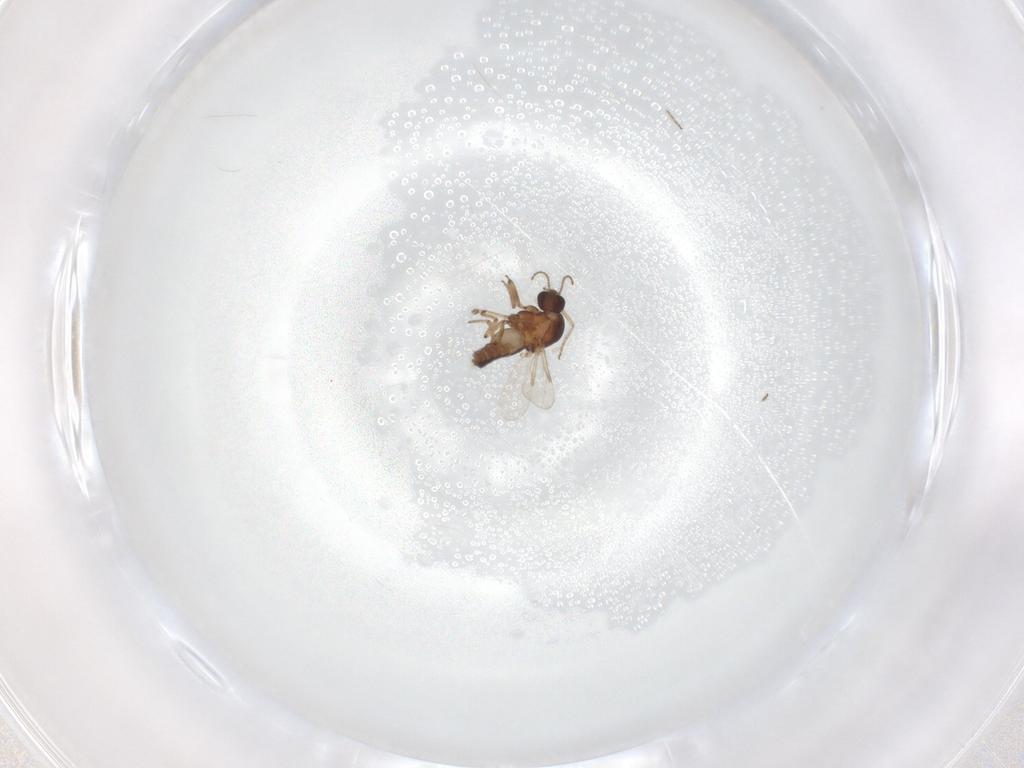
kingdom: Animalia
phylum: Arthropoda
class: Insecta
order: Diptera
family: Ceratopogonidae
